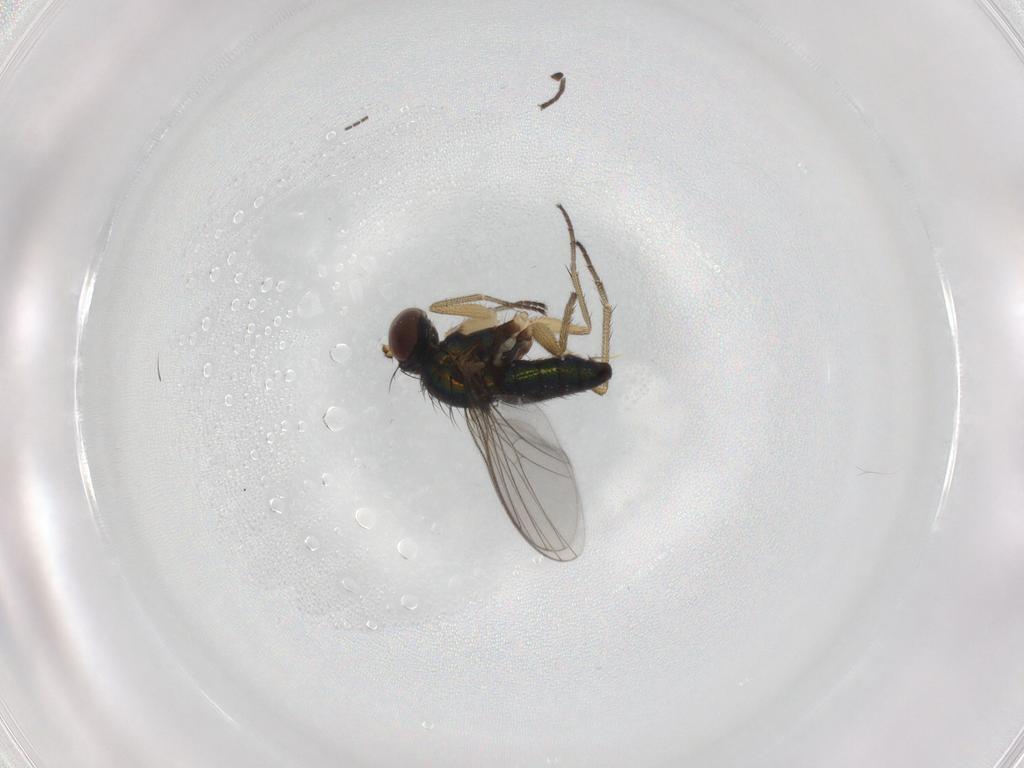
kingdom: Animalia
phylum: Arthropoda
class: Insecta
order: Diptera
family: Dolichopodidae
